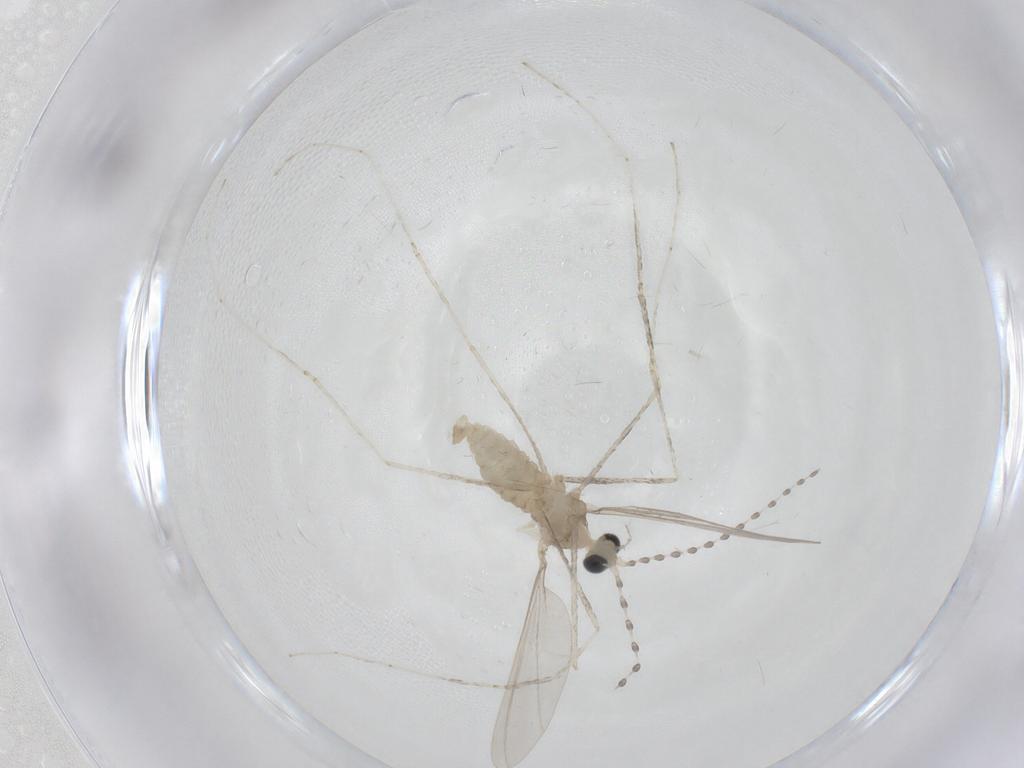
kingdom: Animalia
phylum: Arthropoda
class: Insecta
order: Diptera
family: Cecidomyiidae
